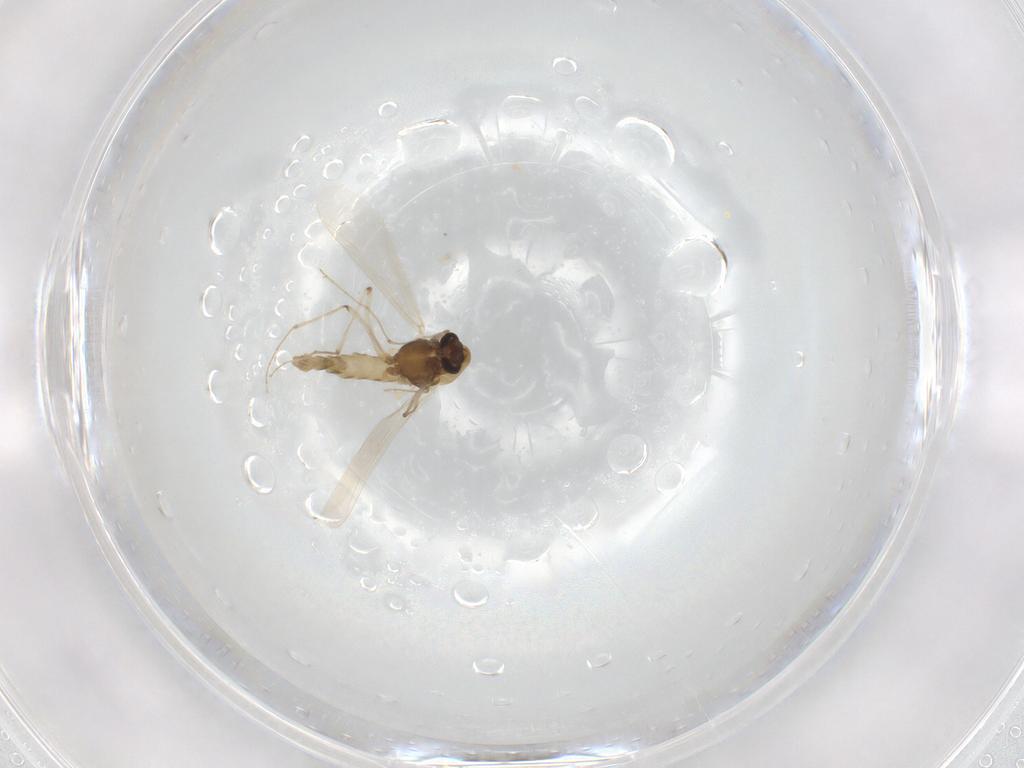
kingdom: Animalia
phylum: Arthropoda
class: Insecta
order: Diptera
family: Chironomidae
